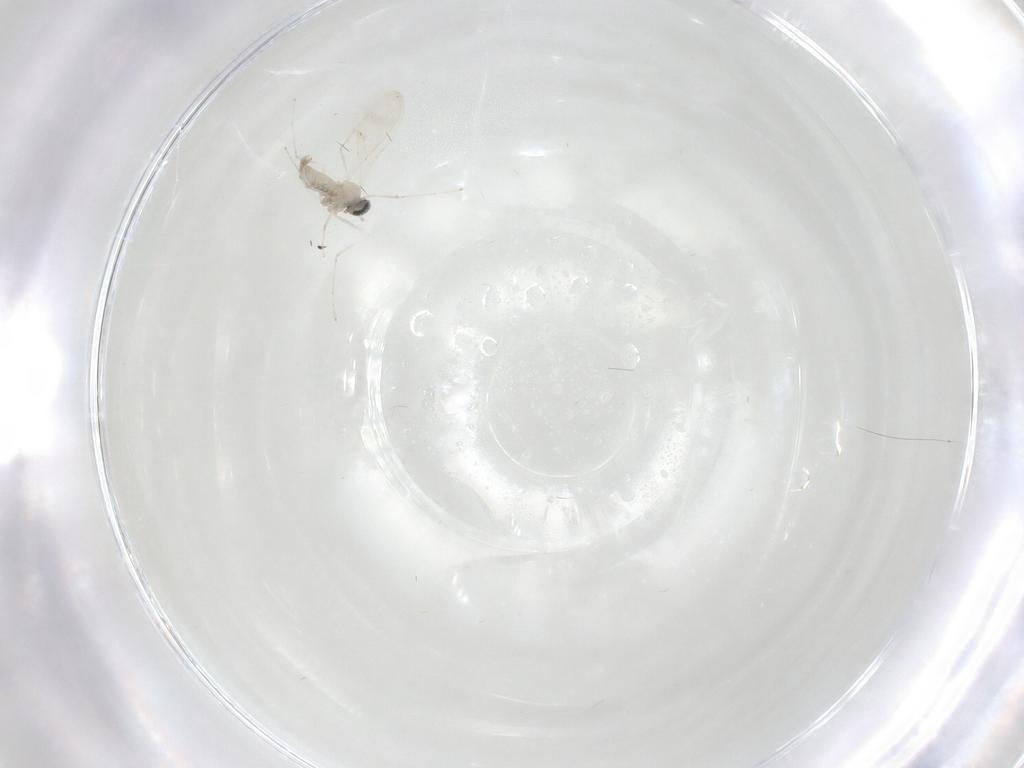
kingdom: Animalia
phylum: Arthropoda
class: Insecta
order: Diptera
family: Cecidomyiidae
